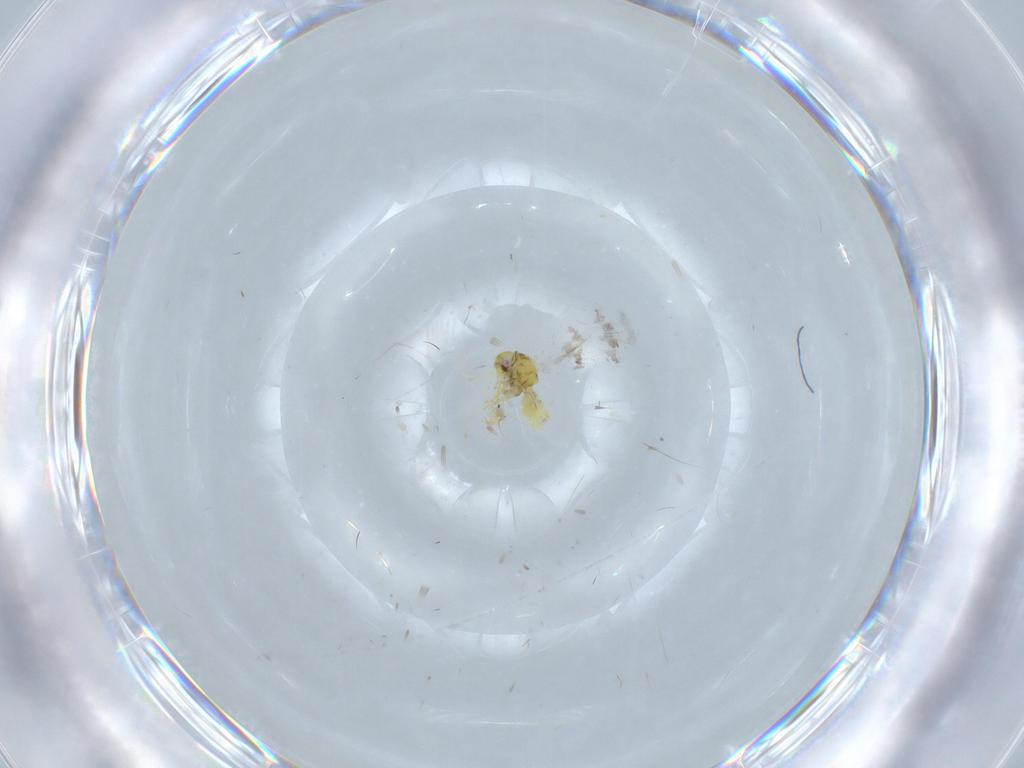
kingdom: Animalia
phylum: Arthropoda
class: Insecta
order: Hemiptera
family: Aleyrodidae
